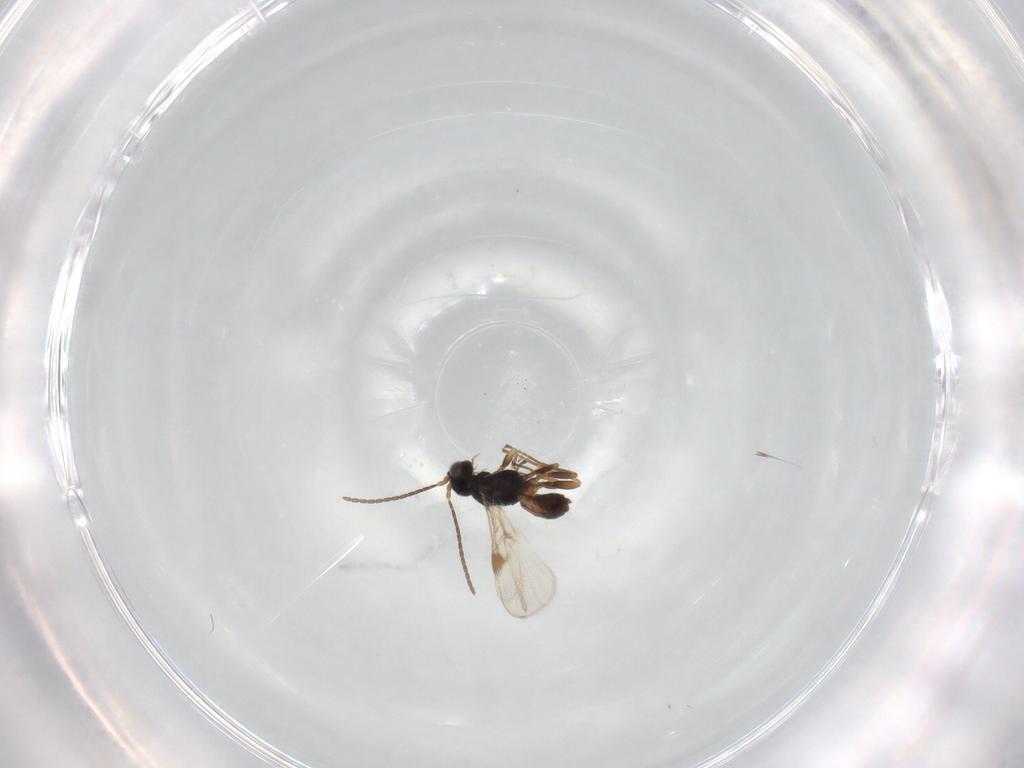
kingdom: Animalia
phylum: Arthropoda
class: Insecta
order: Hymenoptera
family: Braconidae
